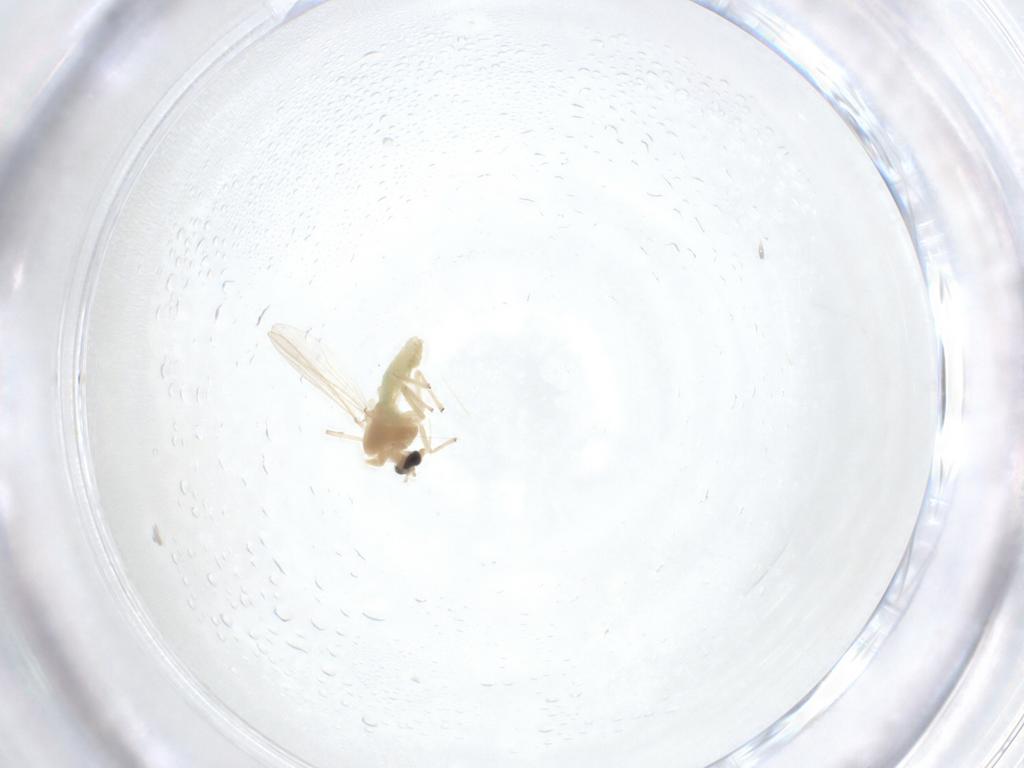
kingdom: Animalia
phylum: Arthropoda
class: Insecta
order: Diptera
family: Chironomidae
